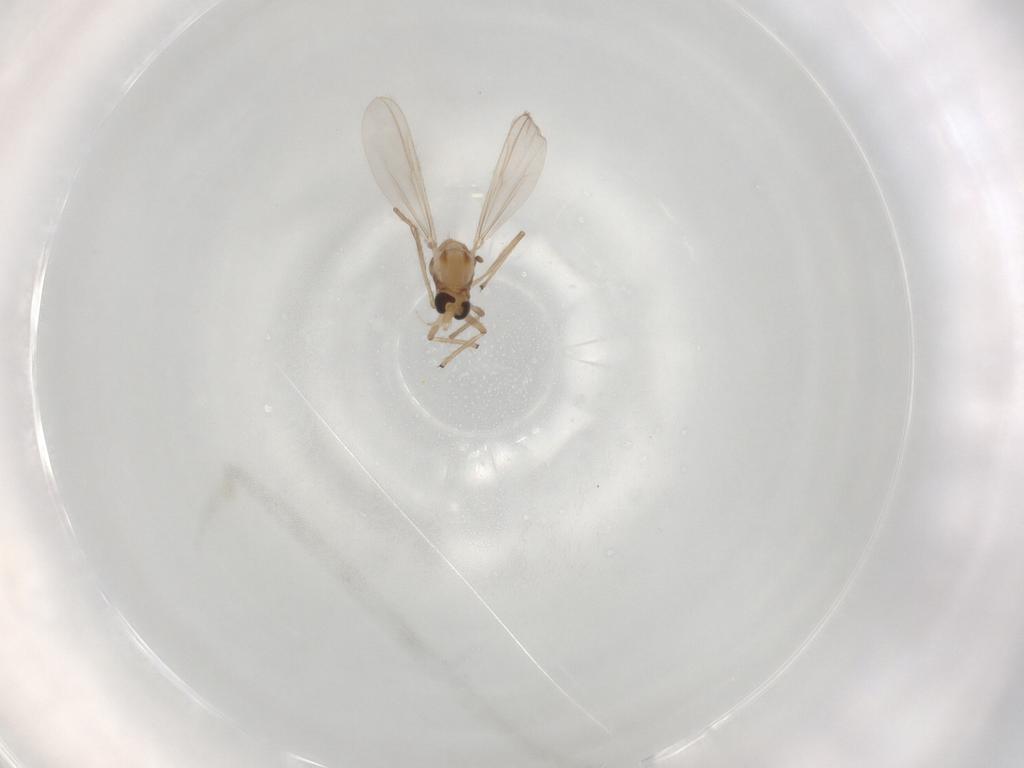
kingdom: Animalia
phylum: Arthropoda
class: Insecta
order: Diptera
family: Chironomidae
